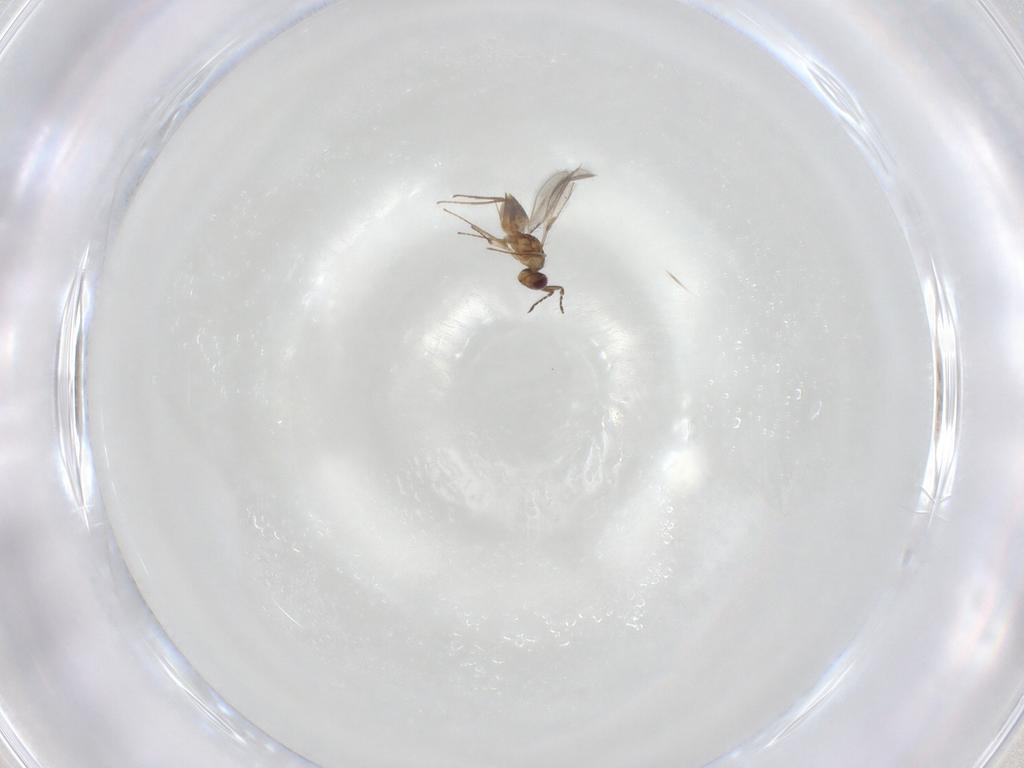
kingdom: Animalia
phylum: Arthropoda
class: Insecta
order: Diptera
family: Chironomidae
